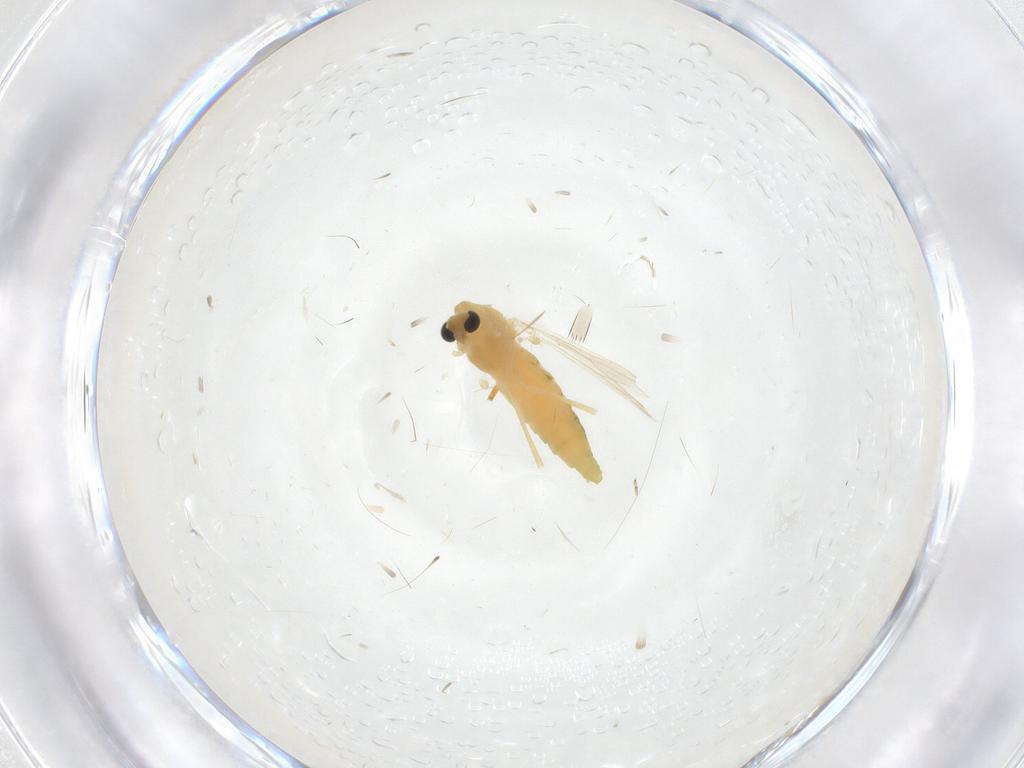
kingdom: Animalia
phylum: Arthropoda
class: Insecta
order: Diptera
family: Chironomidae
